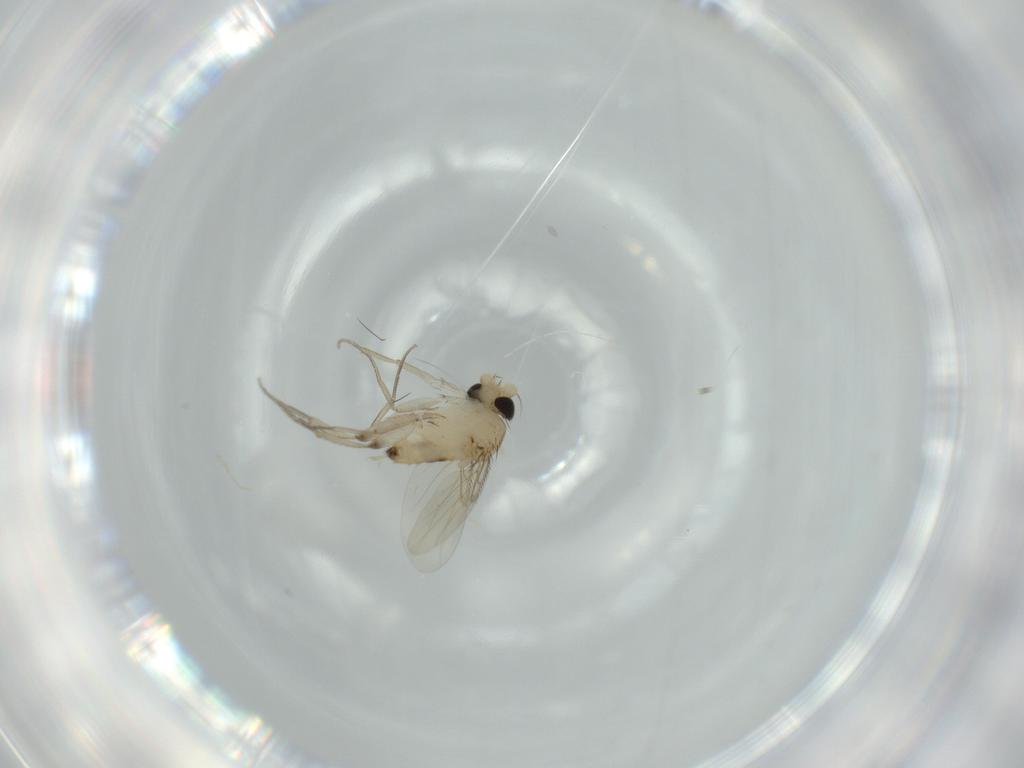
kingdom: Animalia
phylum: Arthropoda
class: Insecta
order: Diptera
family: Phoridae
